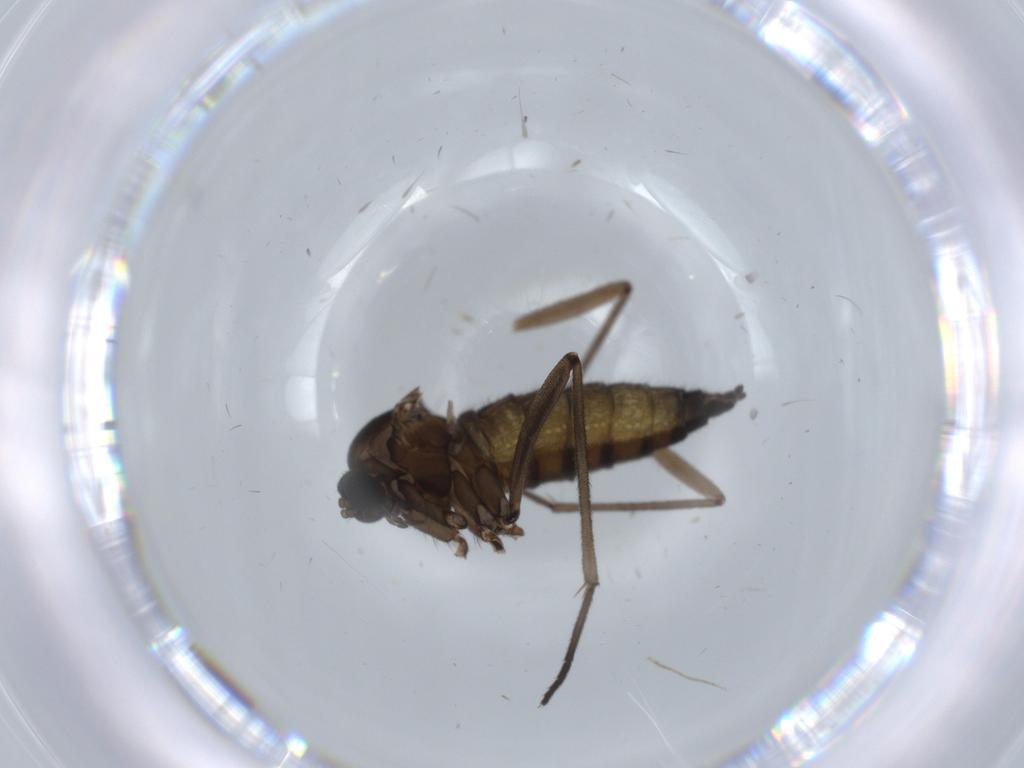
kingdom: Animalia
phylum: Arthropoda
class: Insecta
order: Diptera
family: Sciaridae
